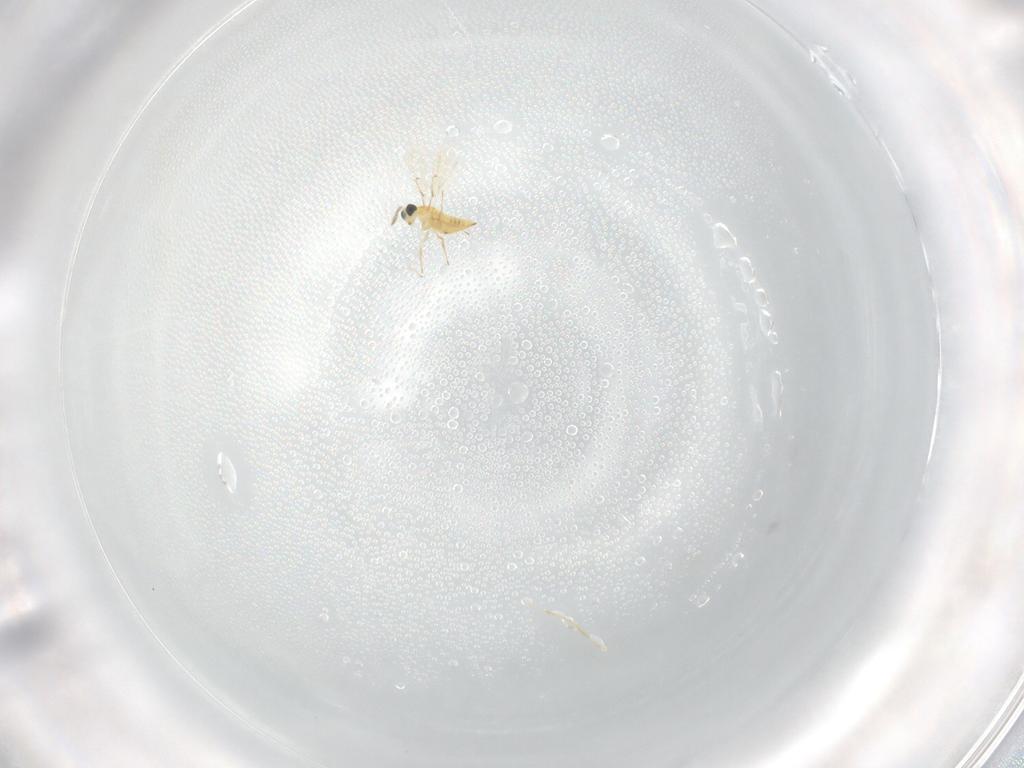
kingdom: Animalia
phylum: Arthropoda
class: Insecta
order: Hymenoptera
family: Trichogrammatidae
